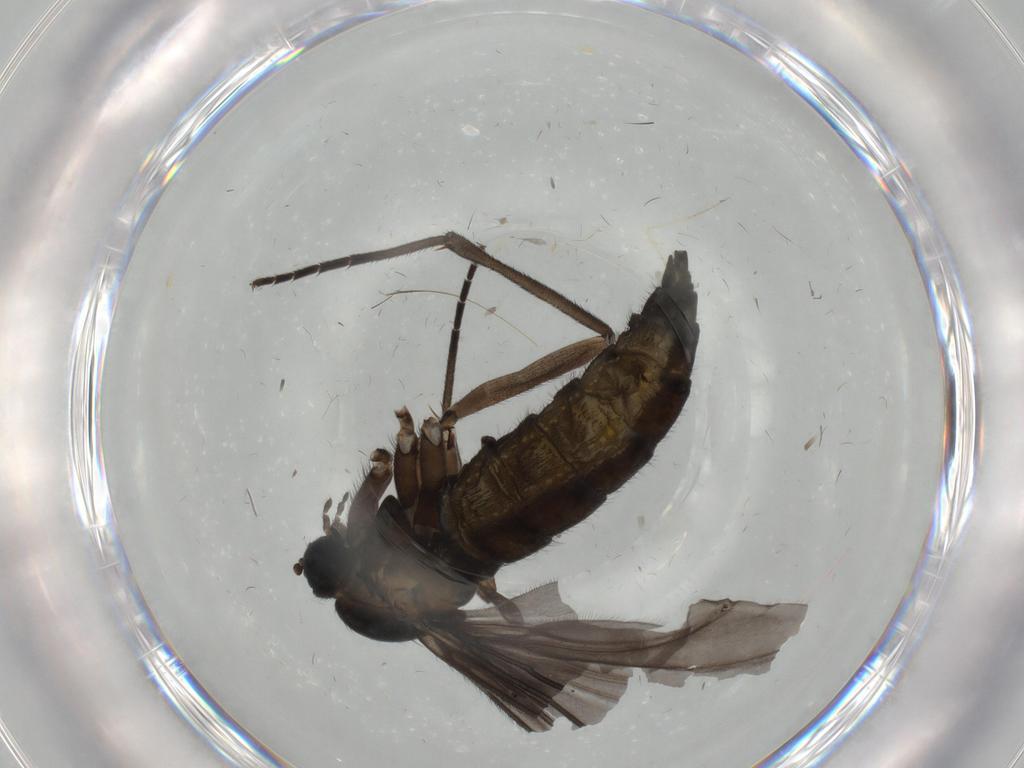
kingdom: Animalia
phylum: Arthropoda
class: Insecta
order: Diptera
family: Sciaridae
